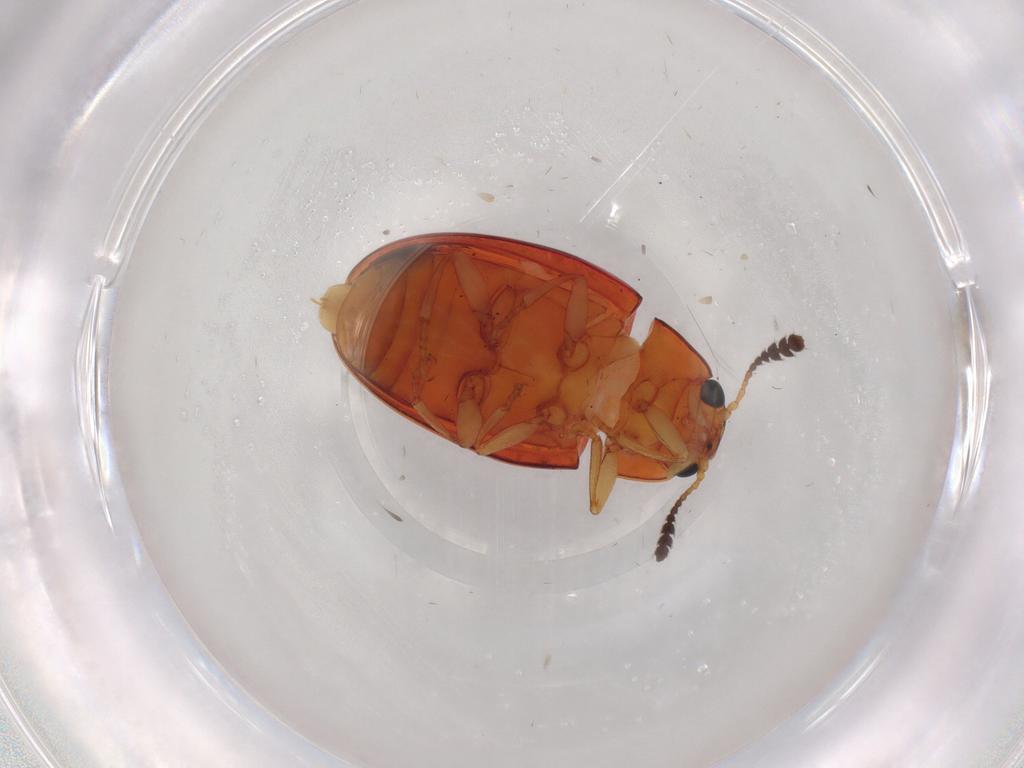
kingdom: Animalia
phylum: Arthropoda
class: Insecta
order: Coleoptera
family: Erotylidae
